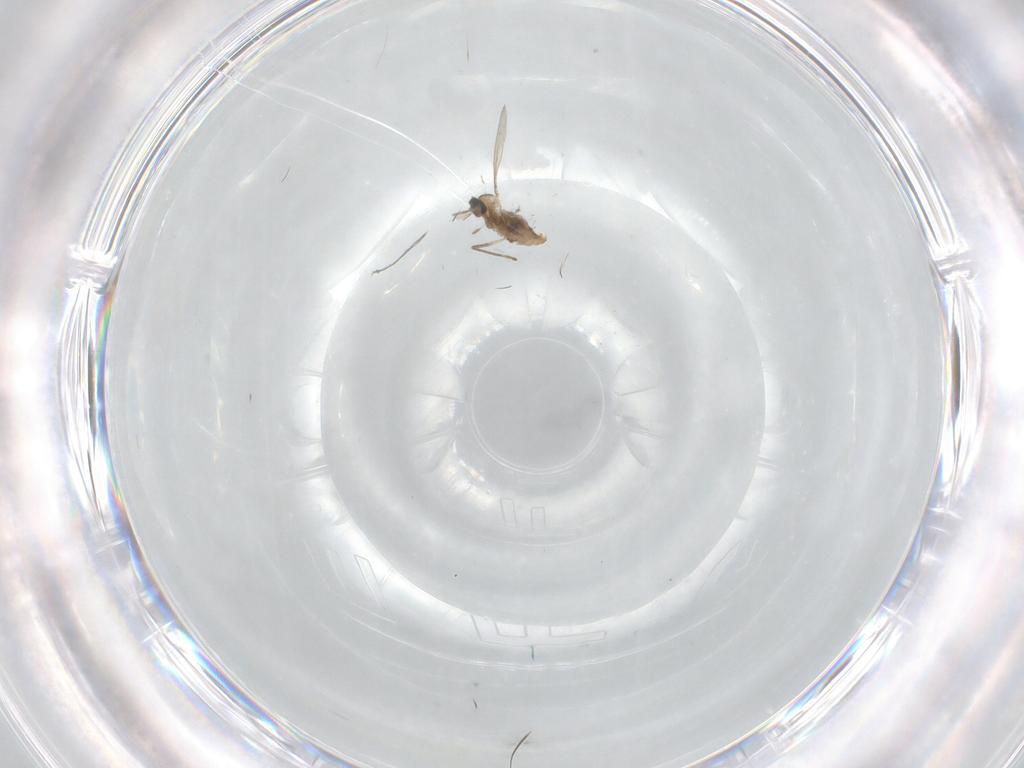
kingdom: Animalia
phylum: Arthropoda
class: Insecta
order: Diptera
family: Cecidomyiidae
